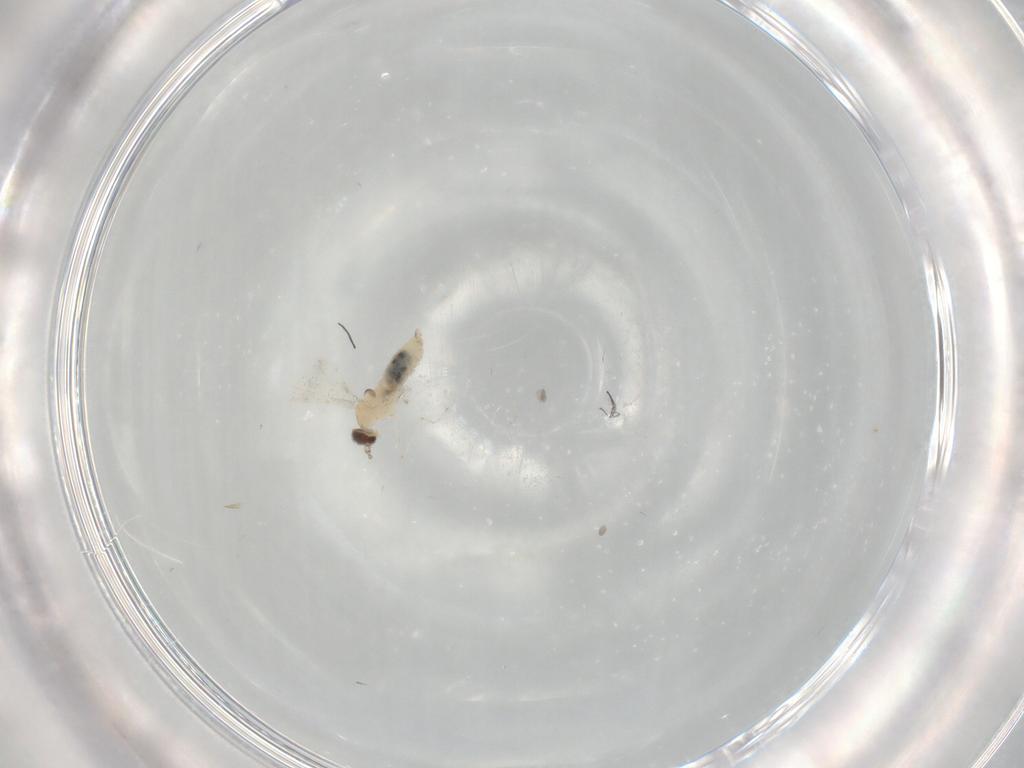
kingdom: Animalia
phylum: Arthropoda
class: Insecta
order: Diptera
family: Cecidomyiidae
